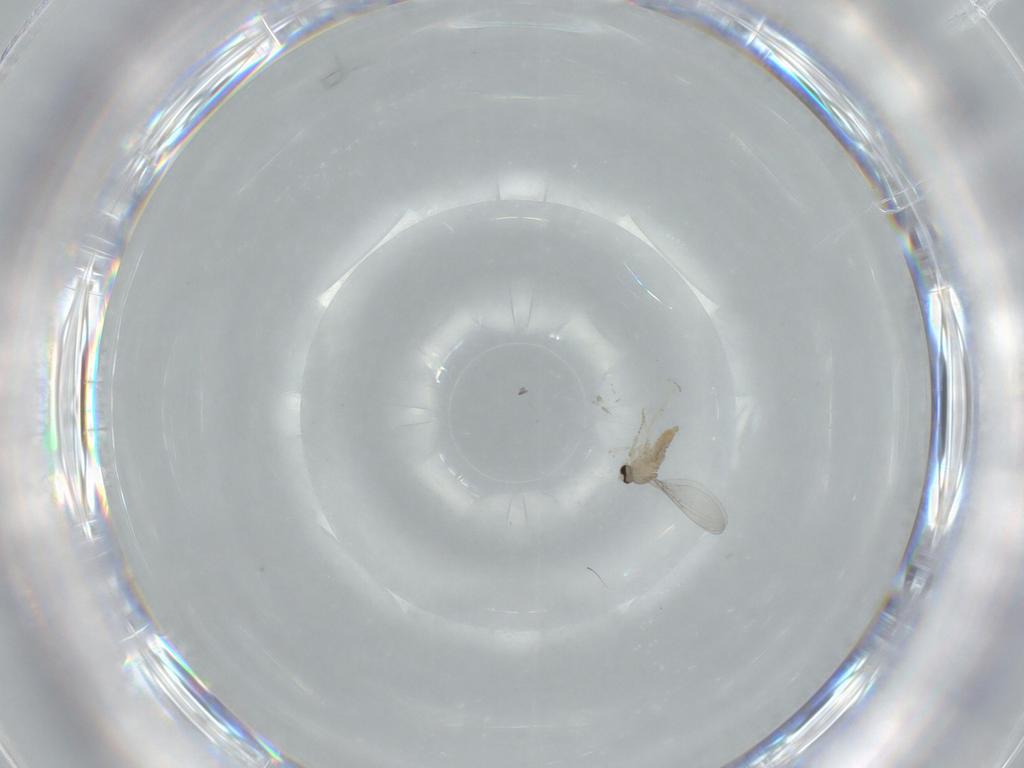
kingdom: Animalia
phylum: Arthropoda
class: Insecta
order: Diptera
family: Cecidomyiidae
